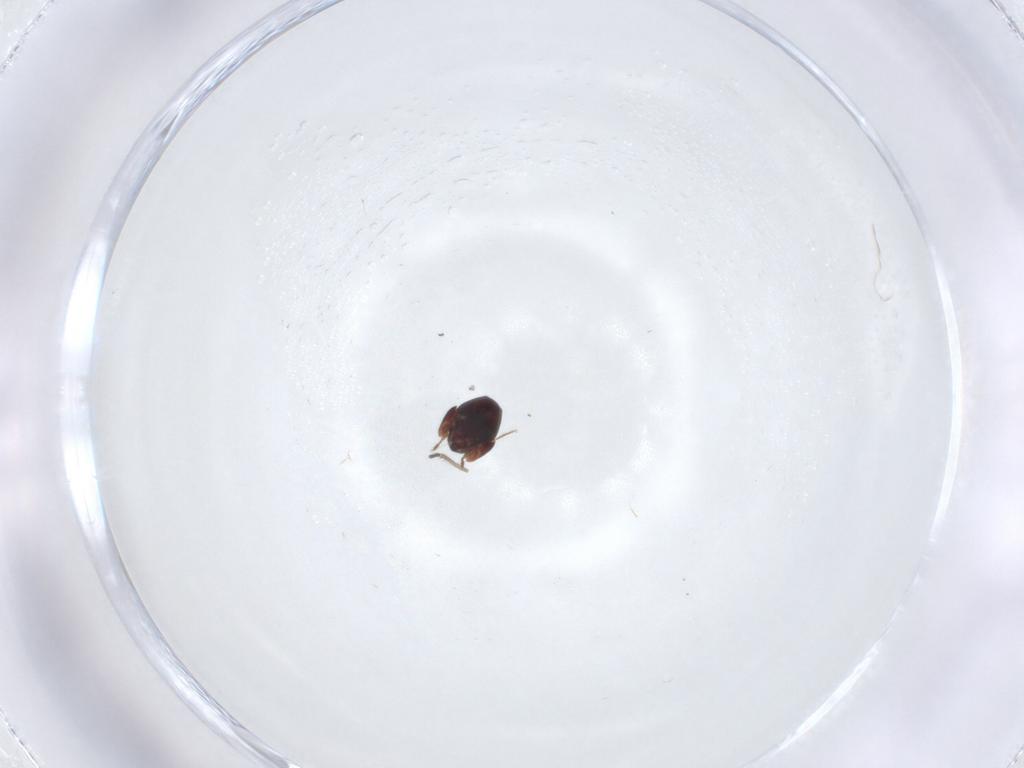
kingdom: Animalia
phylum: Arthropoda
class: Arachnida
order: Sarcoptiformes
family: Galumnidae
